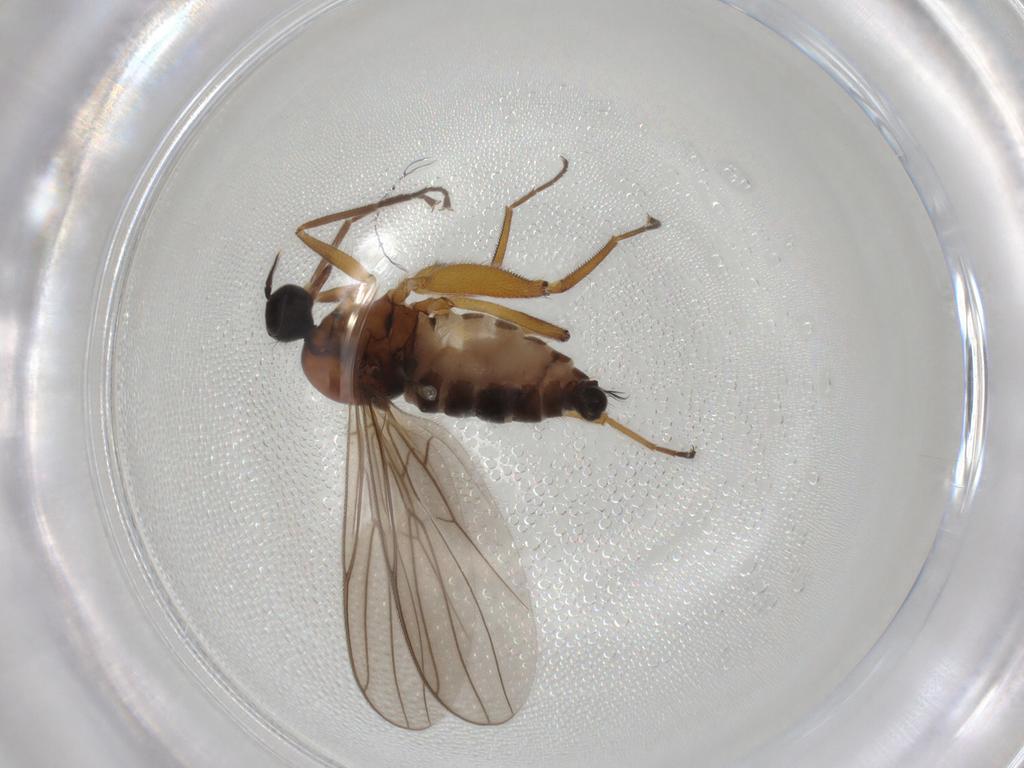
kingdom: Animalia
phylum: Arthropoda
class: Insecta
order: Diptera
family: Hybotidae
